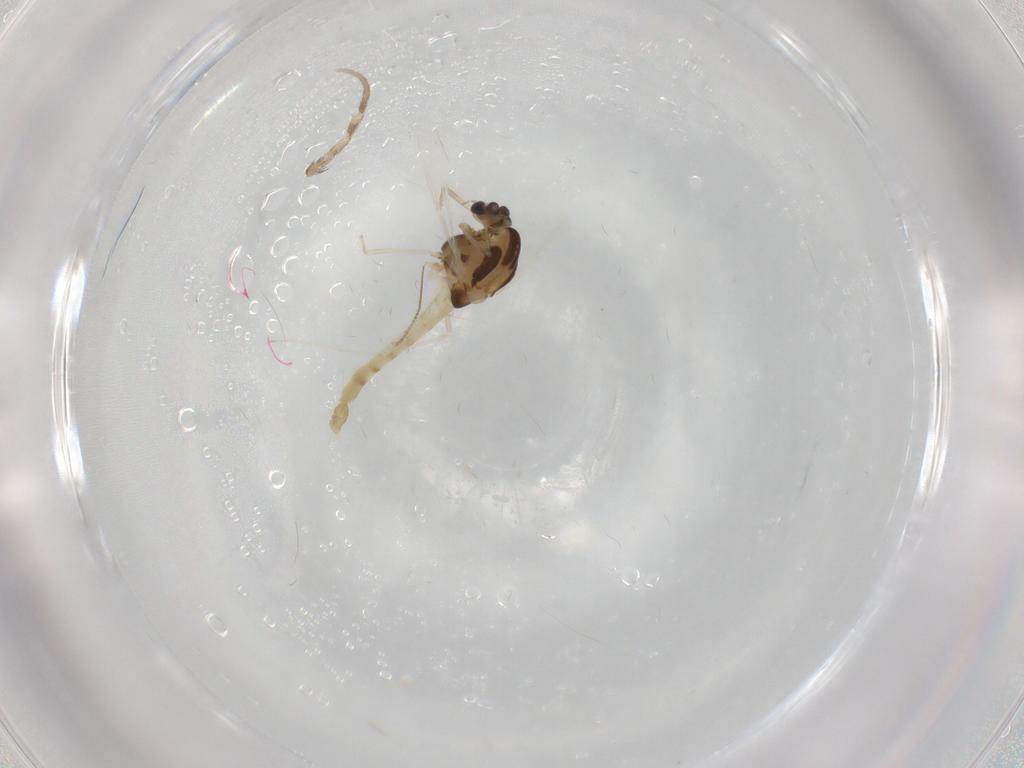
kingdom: Animalia
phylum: Arthropoda
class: Insecta
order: Diptera
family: Chironomidae
